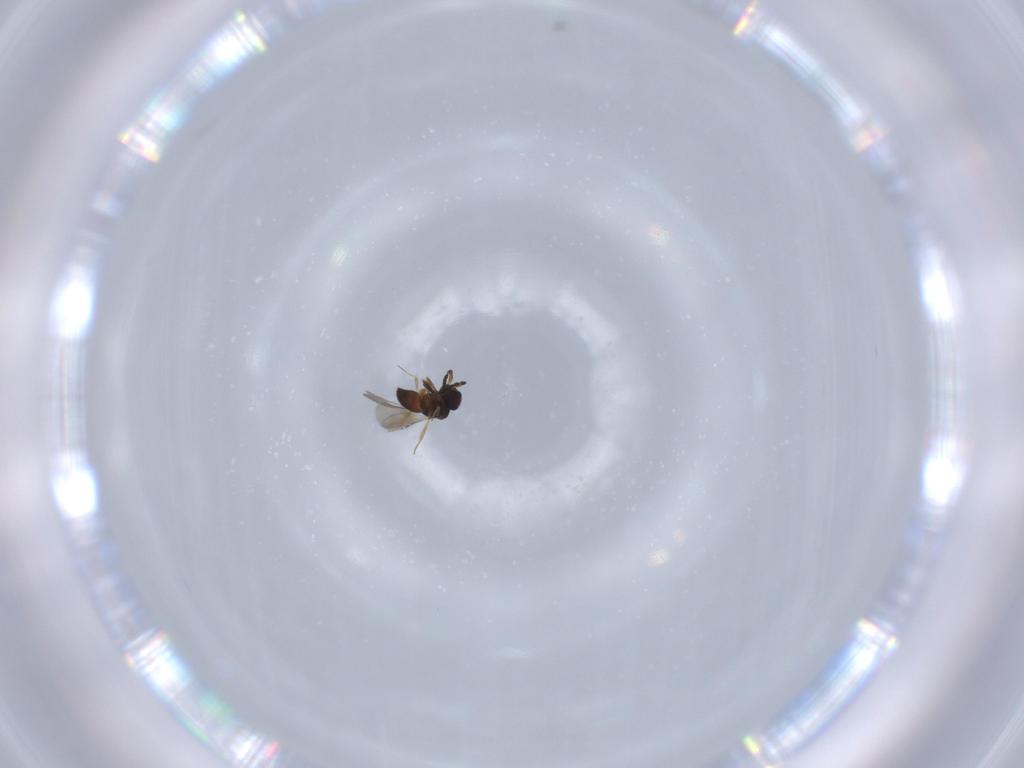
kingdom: Animalia
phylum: Arthropoda
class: Insecta
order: Hymenoptera
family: Ceraphronidae
